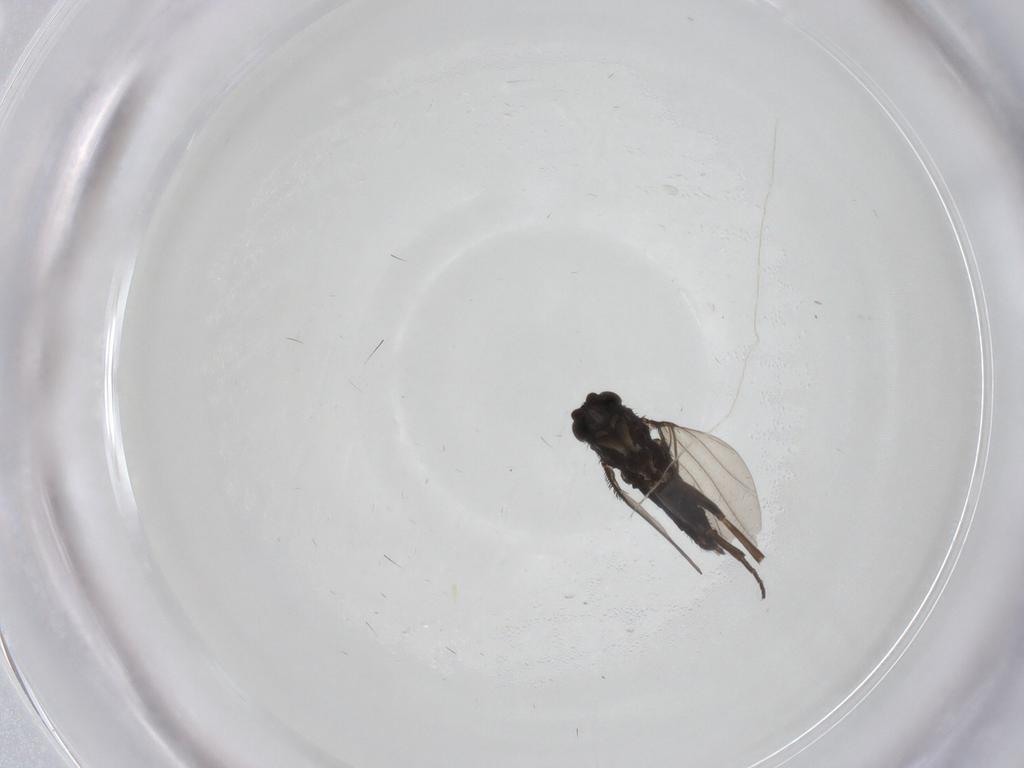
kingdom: Animalia
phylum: Arthropoda
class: Insecta
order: Diptera
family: Phoridae
